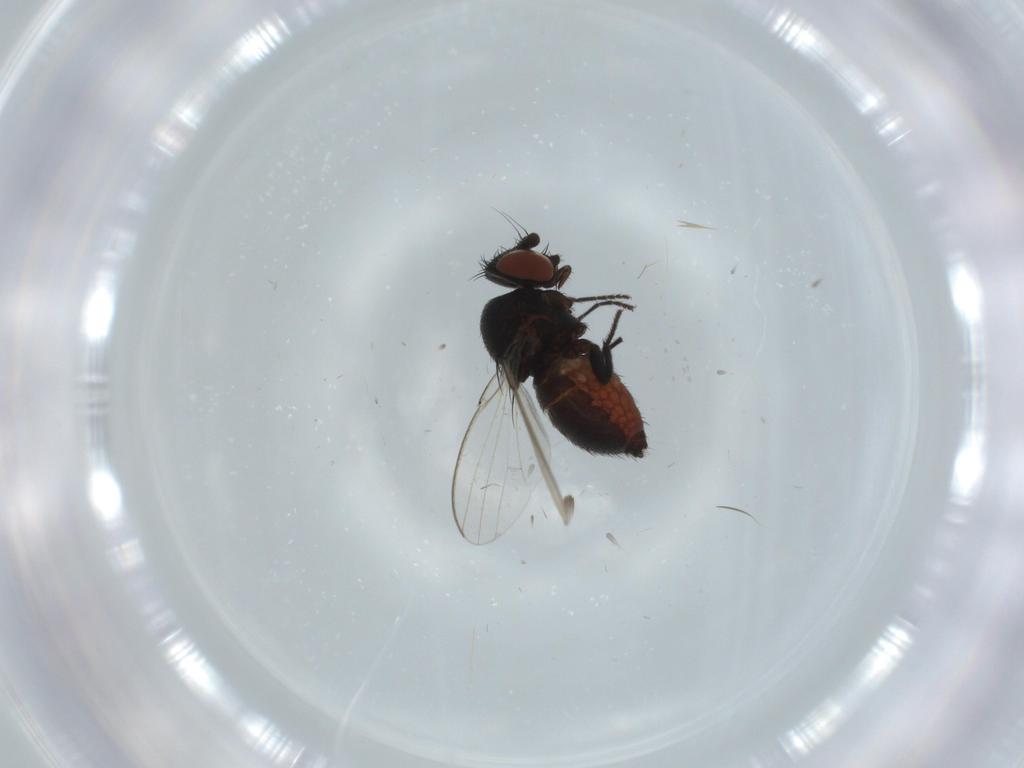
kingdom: Animalia
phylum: Arthropoda
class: Insecta
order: Diptera
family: Milichiidae
